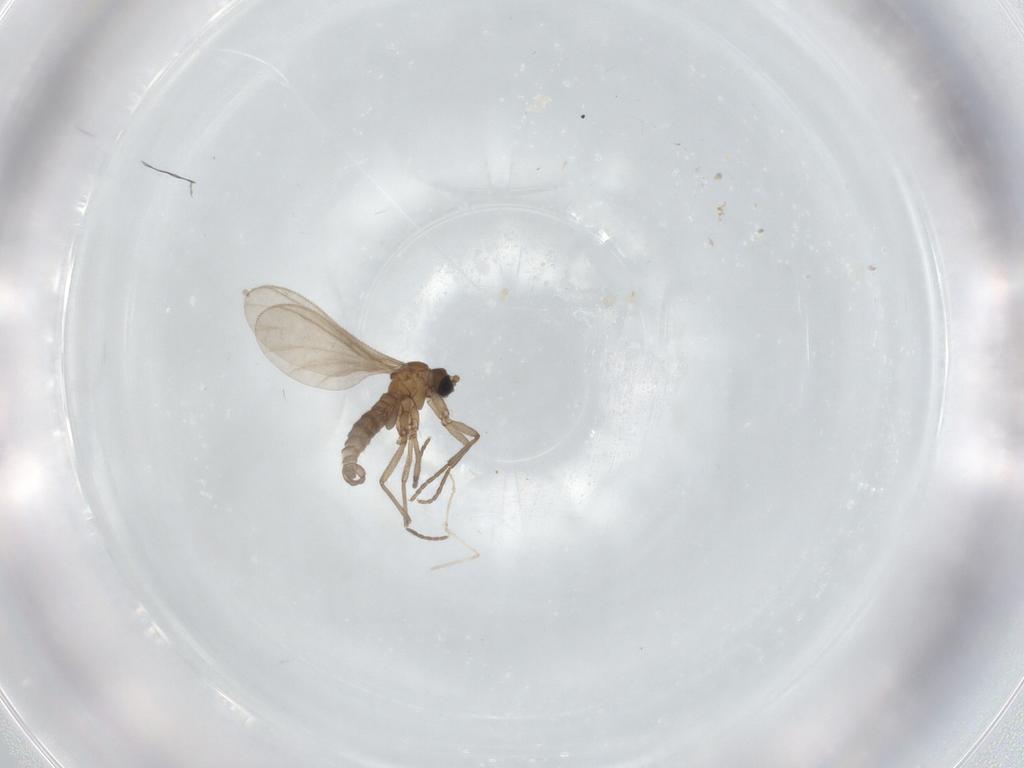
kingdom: Animalia
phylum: Arthropoda
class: Insecta
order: Diptera
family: Sciaridae
